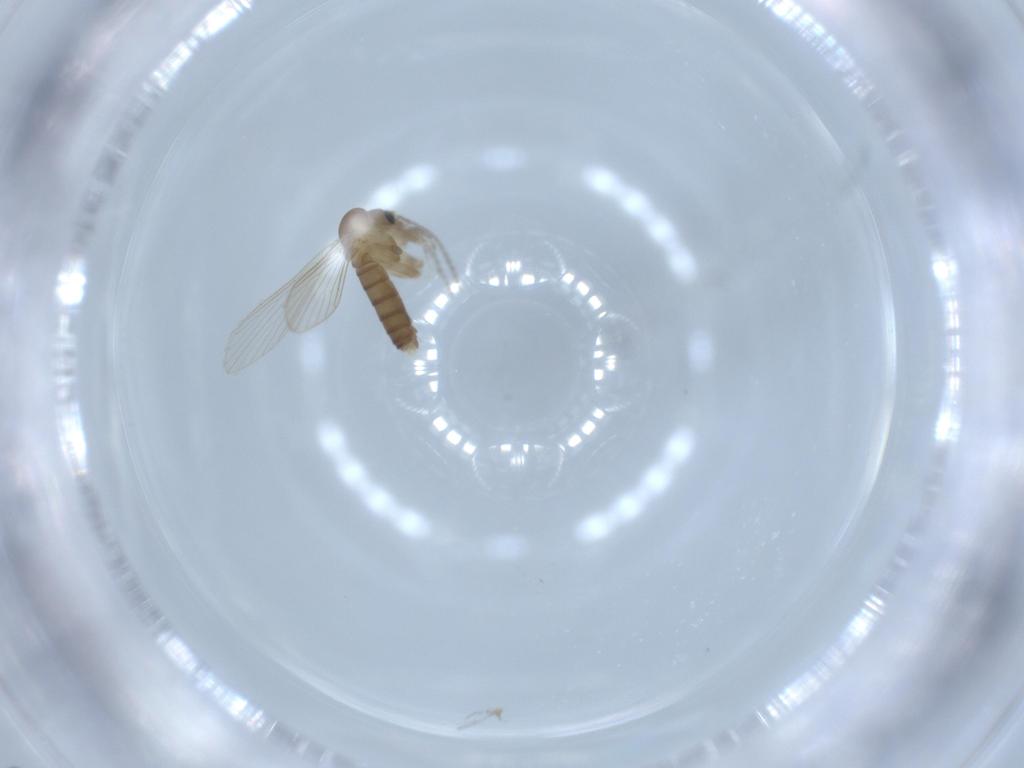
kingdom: Animalia
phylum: Arthropoda
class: Insecta
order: Diptera
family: Psychodidae
